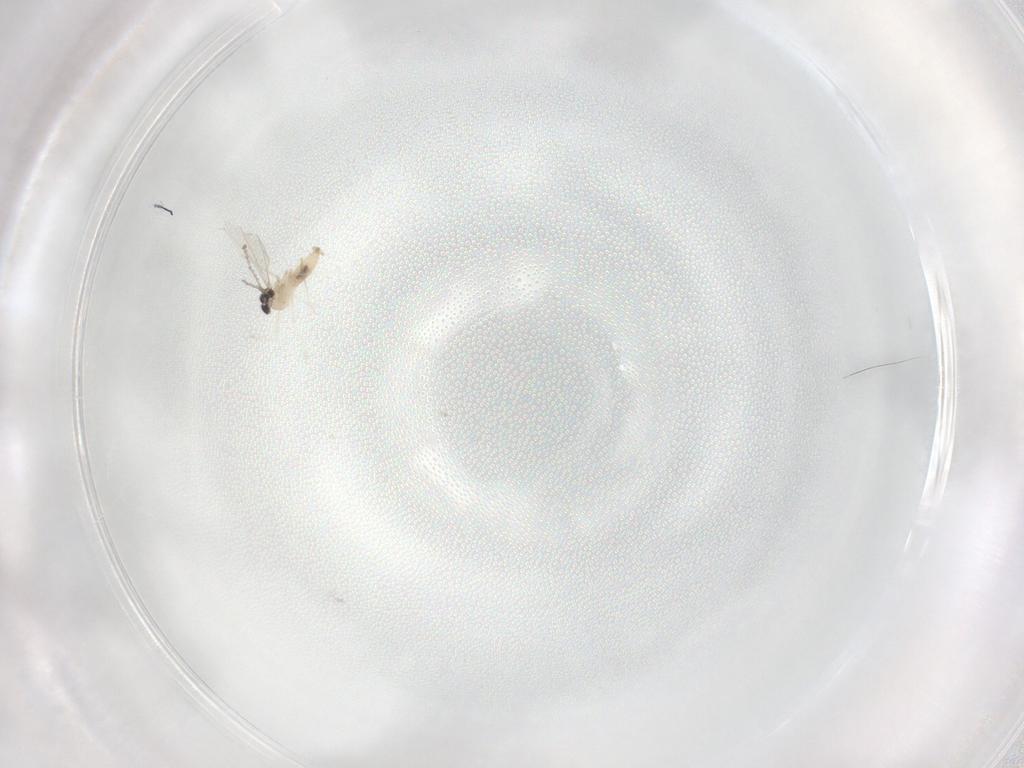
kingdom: Animalia
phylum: Arthropoda
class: Insecta
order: Diptera
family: Cecidomyiidae
